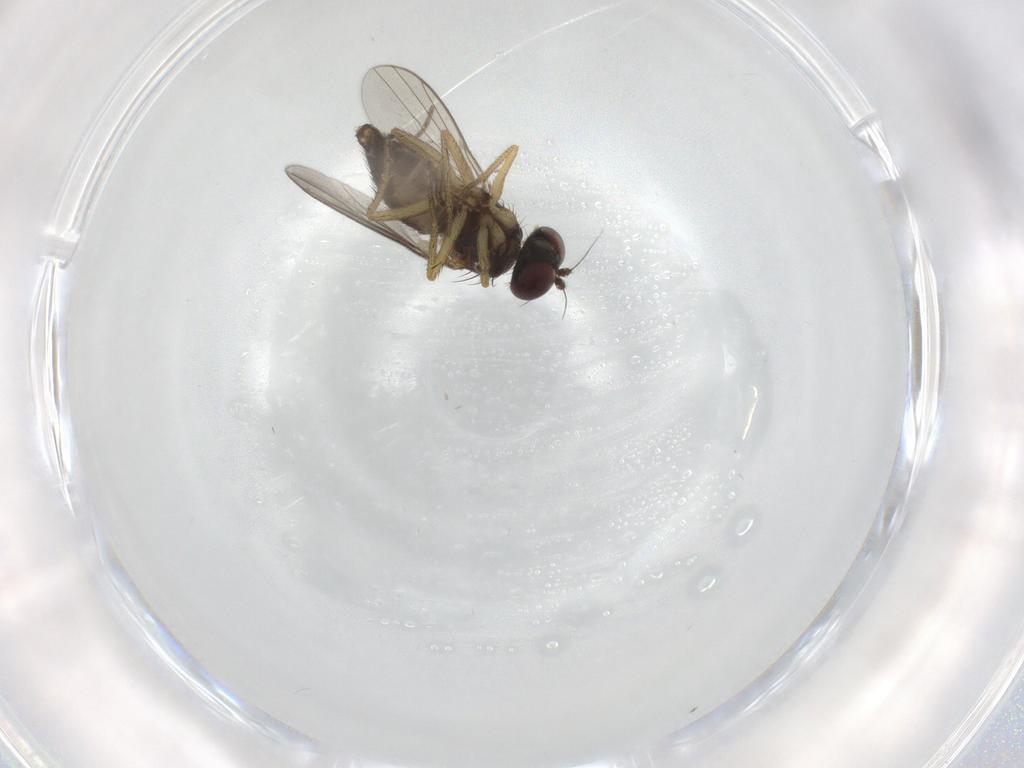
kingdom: Animalia
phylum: Arthropoda
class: Insecta
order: Diptera
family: Dolichopodidae
